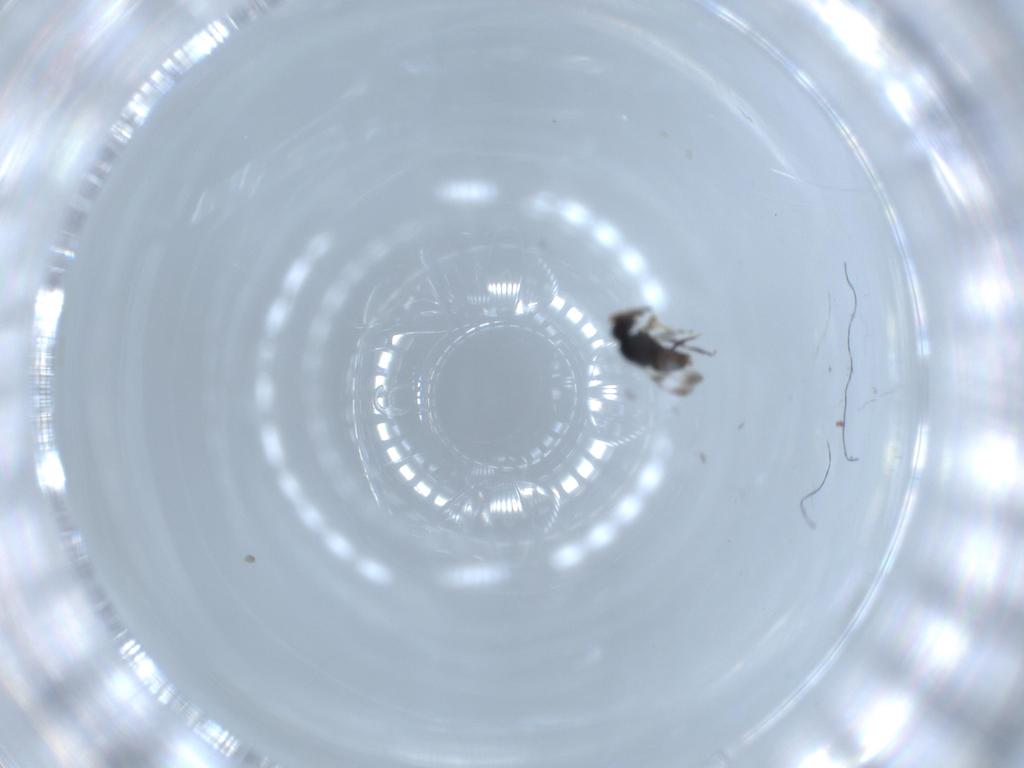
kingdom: Animalia
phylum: Arthropoda
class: Insecta
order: Hymenoptera
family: Ceraphronidae
